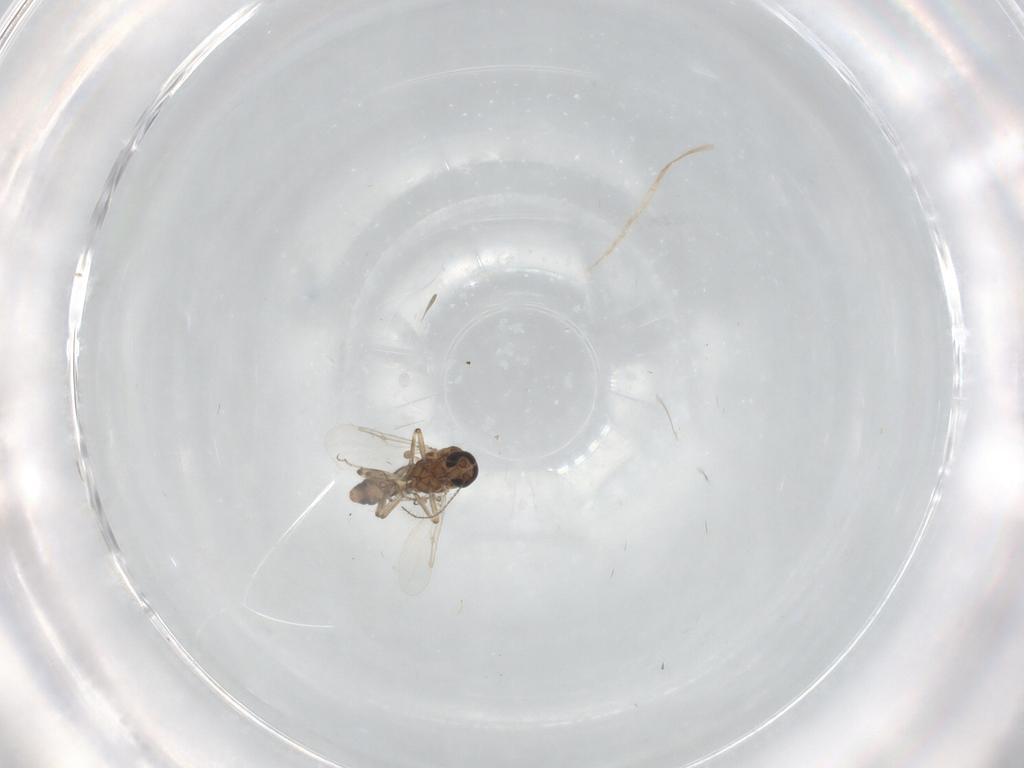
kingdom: Animalia
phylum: Arthropoda
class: Insecta
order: Diptera
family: Ceratopogonidae
